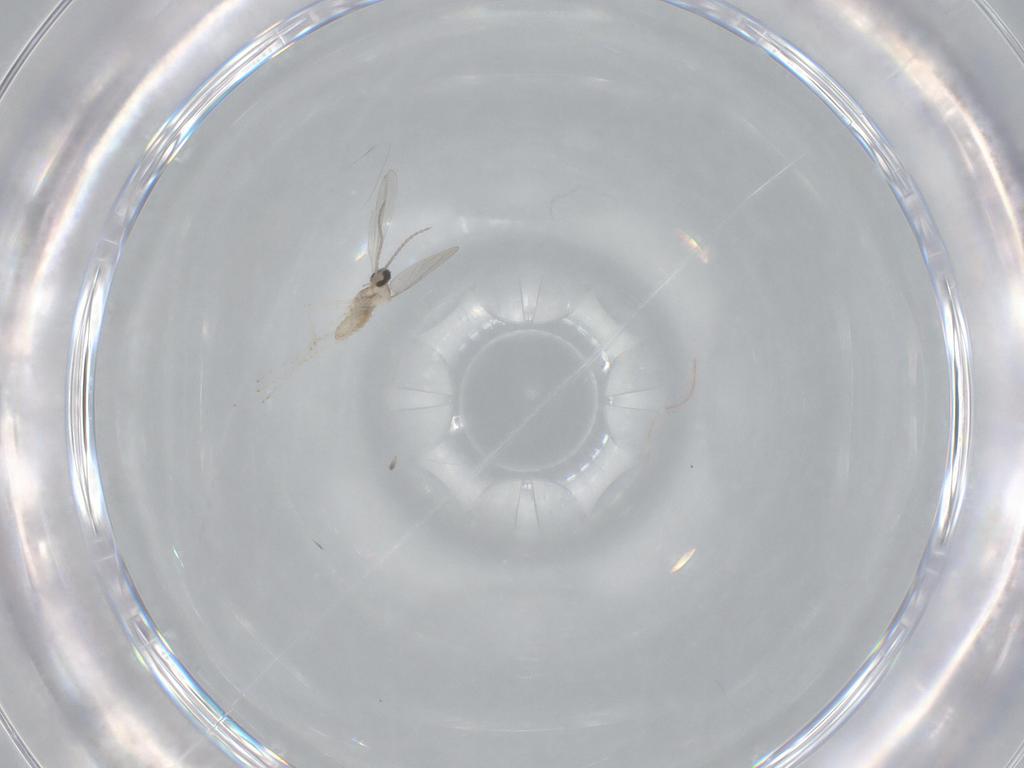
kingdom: Animalia
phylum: Arthropoda
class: Insecta
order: Diptera
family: Cecidomyiidae
